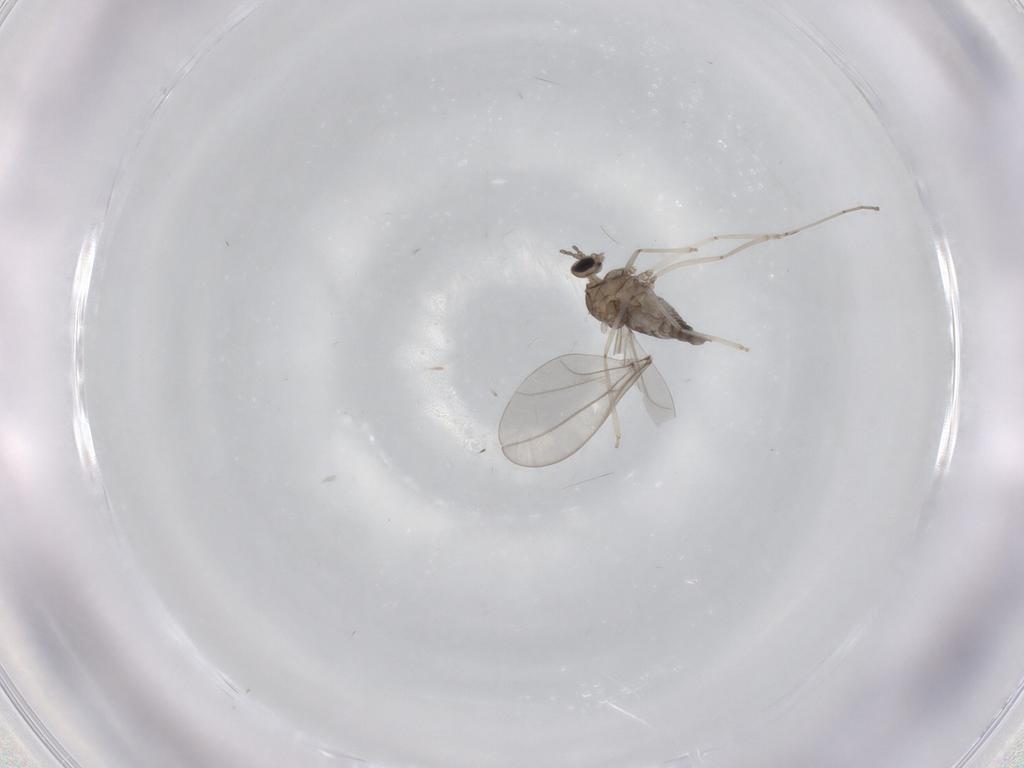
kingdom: Animalia
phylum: Arthropoda
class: Insecta
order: Diptera
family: Cecidomyiidae
